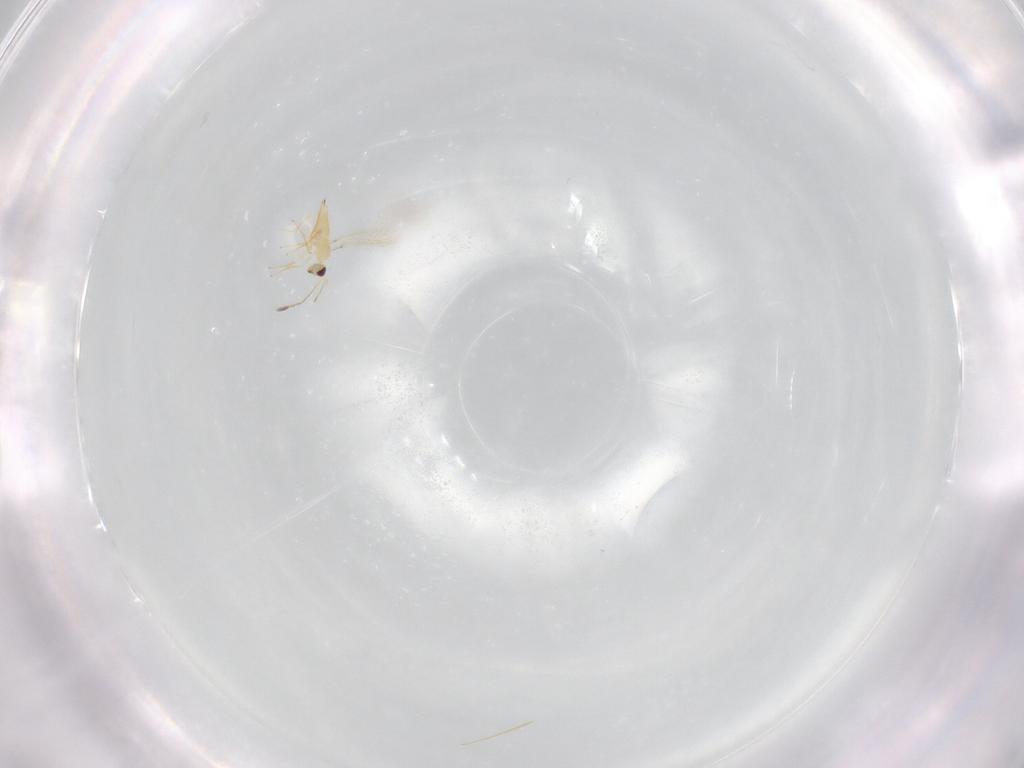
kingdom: Animalia
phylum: Arthropoda
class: Insecta
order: Hymenoptera
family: Mymaridae
